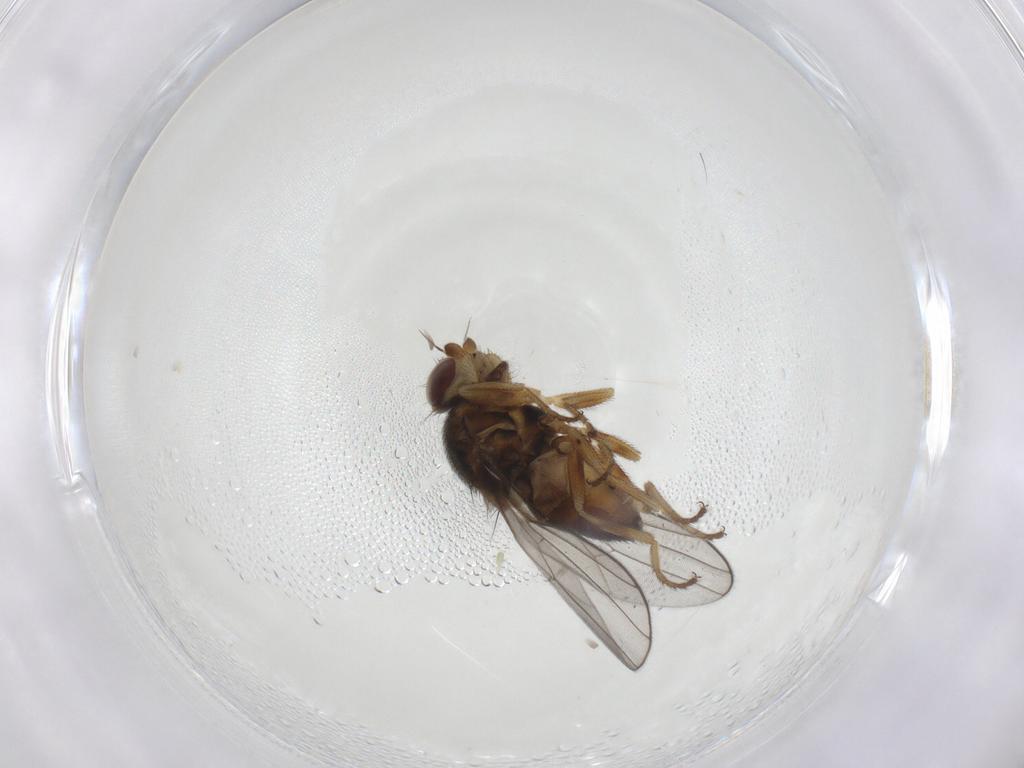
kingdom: Animalia
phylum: Arthropoda
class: Insecta
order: Diptera
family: Chloropidae
